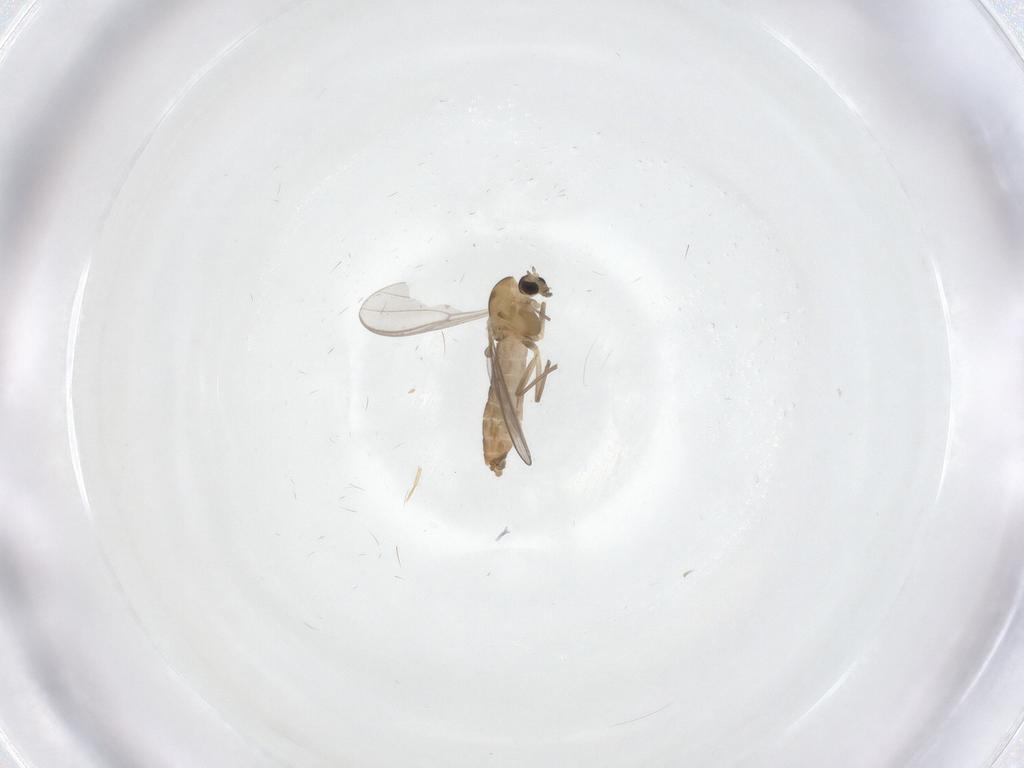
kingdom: Animalia
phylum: Arthropoda
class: Insecta
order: Diptera
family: Chironomidae
